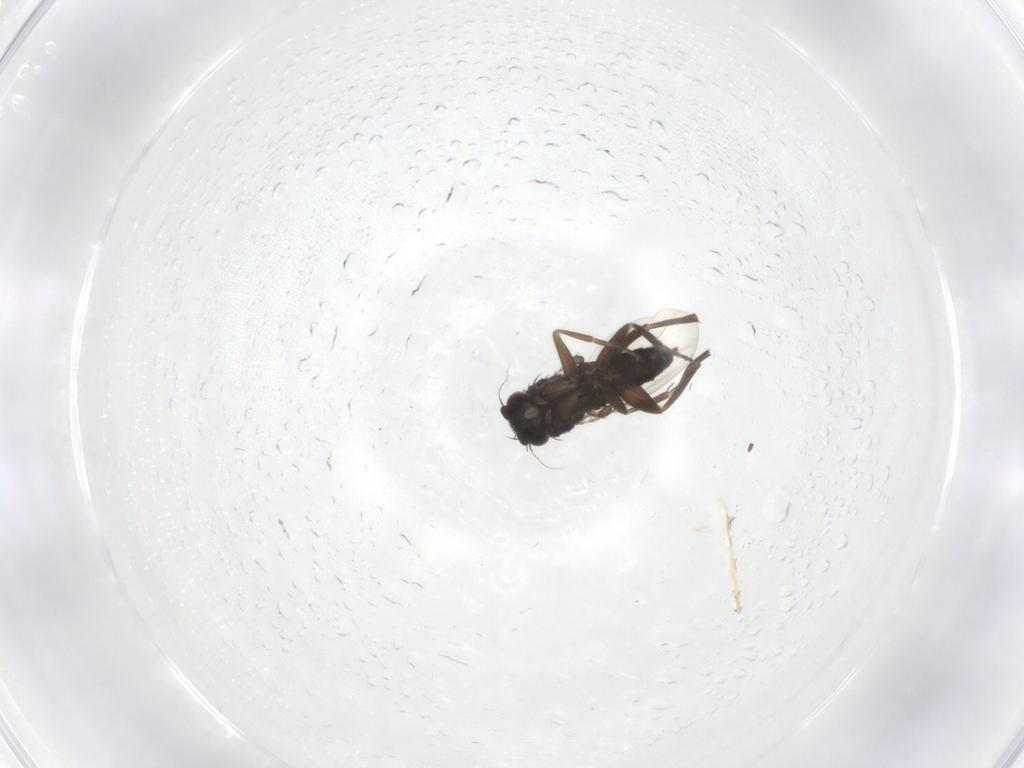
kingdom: Animalia
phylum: Arthropoda
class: Insecta
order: Diptera
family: Phoridae
